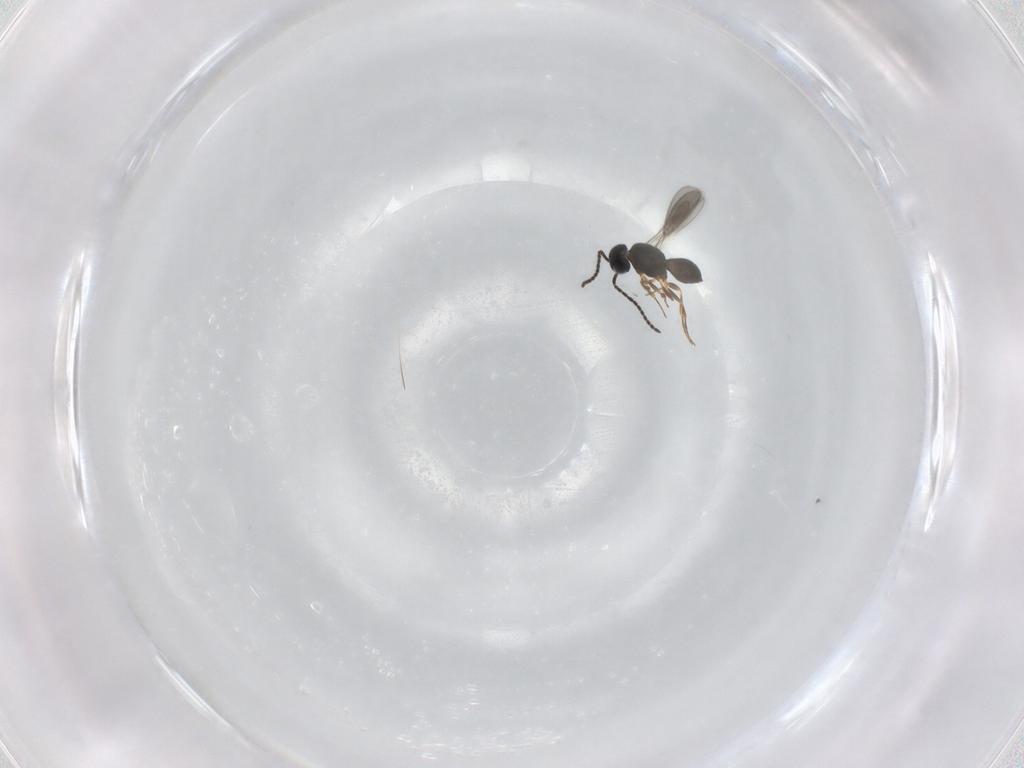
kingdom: Animalia
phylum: Arthropoda
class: Insecta
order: Hymenoptera
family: Scelionidae
